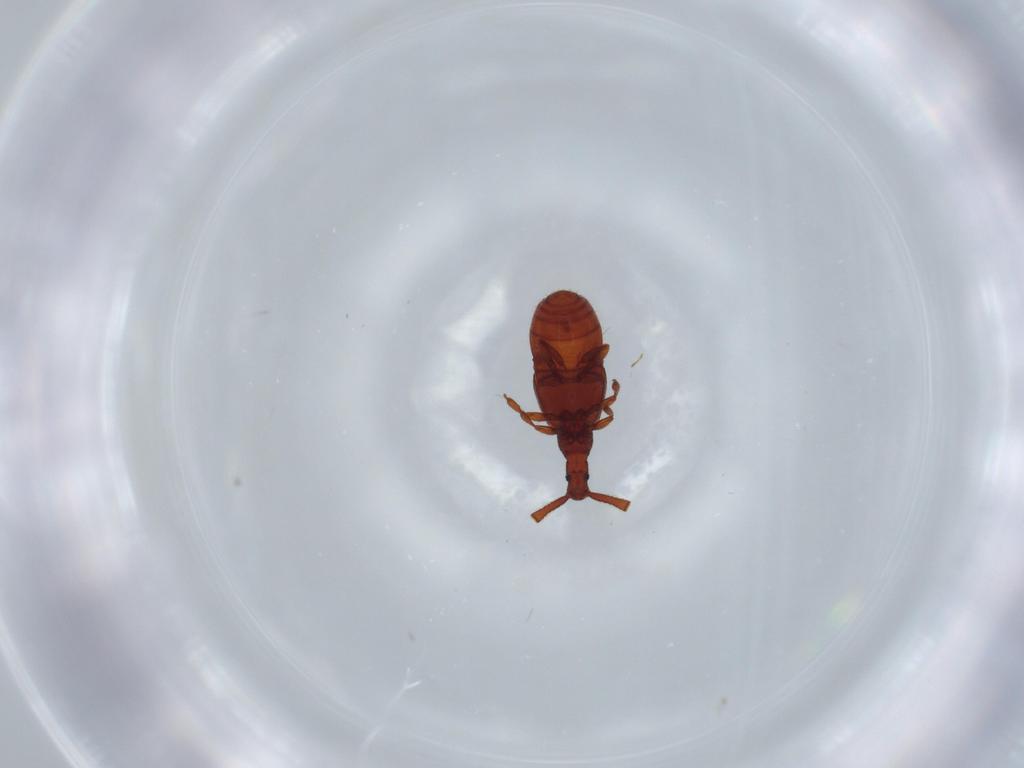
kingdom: Animalia
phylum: Arthropoda
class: Insecta
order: Coleoptera
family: Staphylinidae
